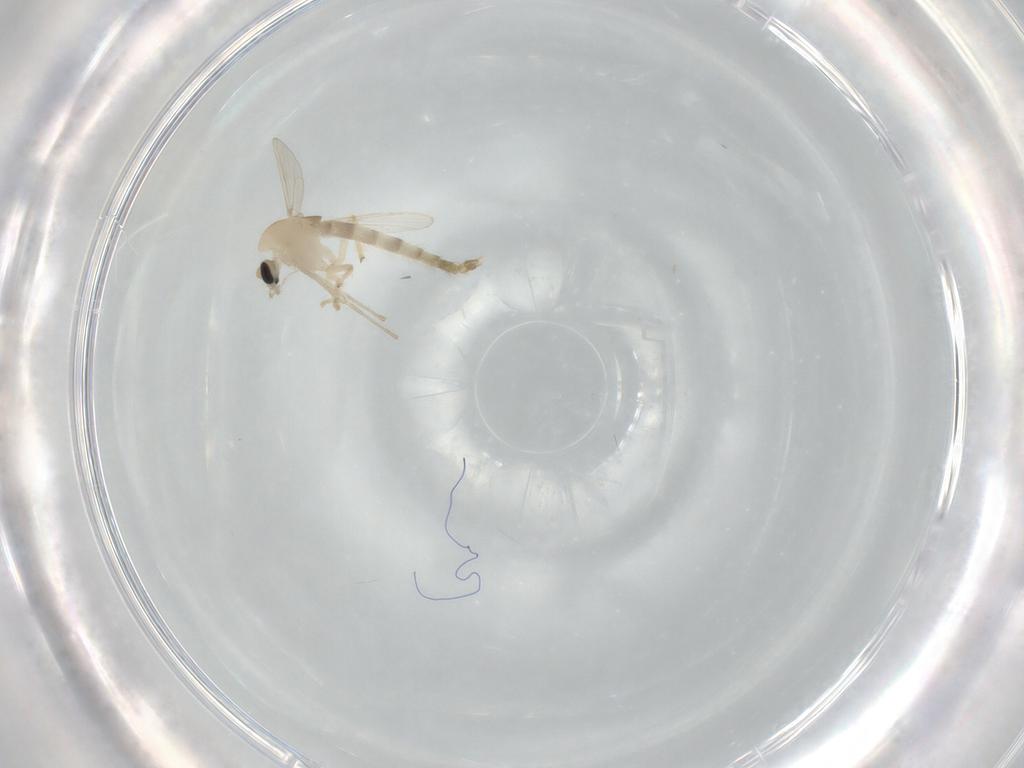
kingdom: Animalia
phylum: Arthropoda
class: Insecta
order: Diptera
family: Chironomidae
